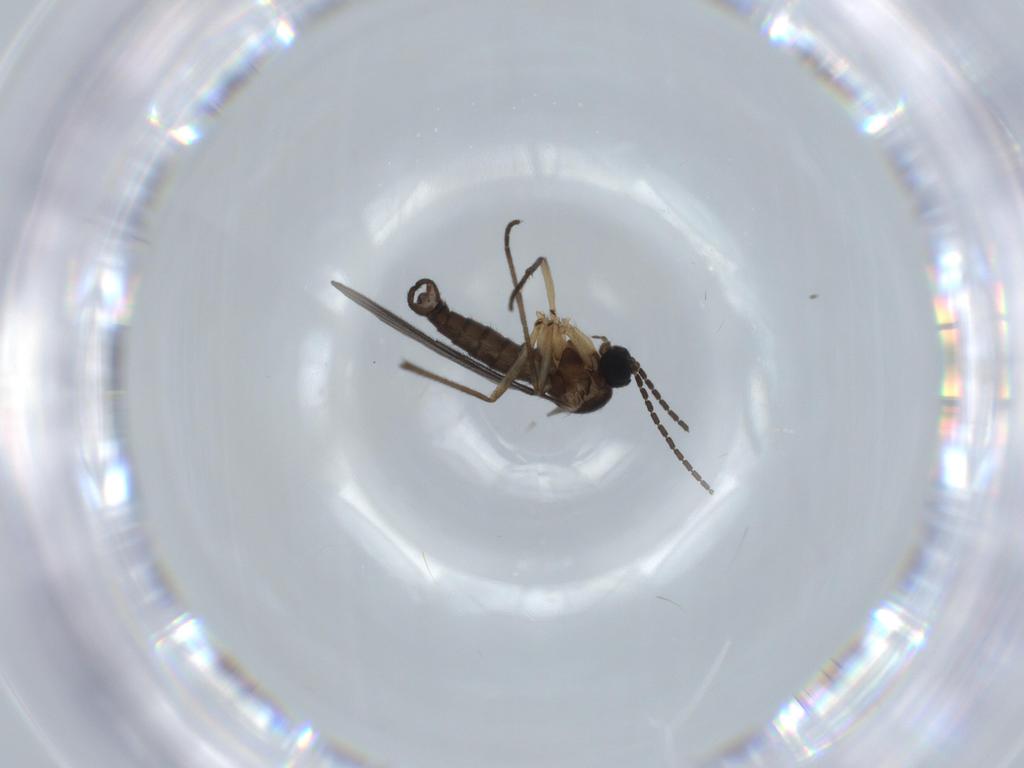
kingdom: Animalia
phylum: Arthropoda
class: Insecta
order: Diptera
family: Sciaridae
